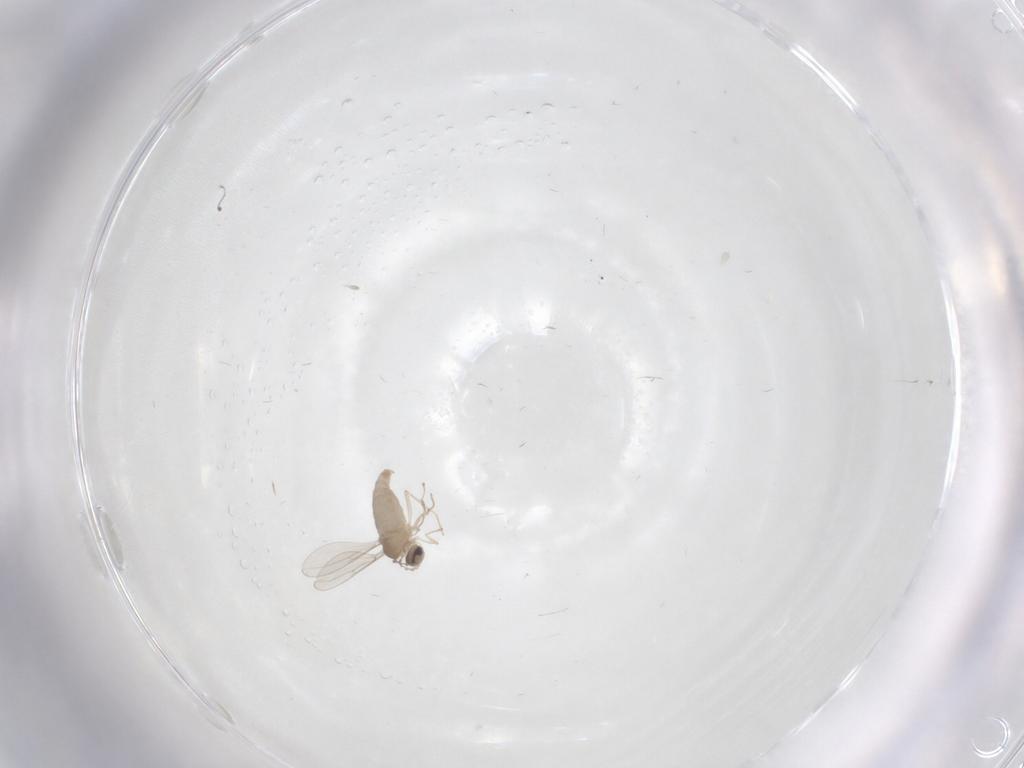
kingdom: Animalia
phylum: Arthropoda
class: Insecta
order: Diptera
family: Cecidomyiidae
